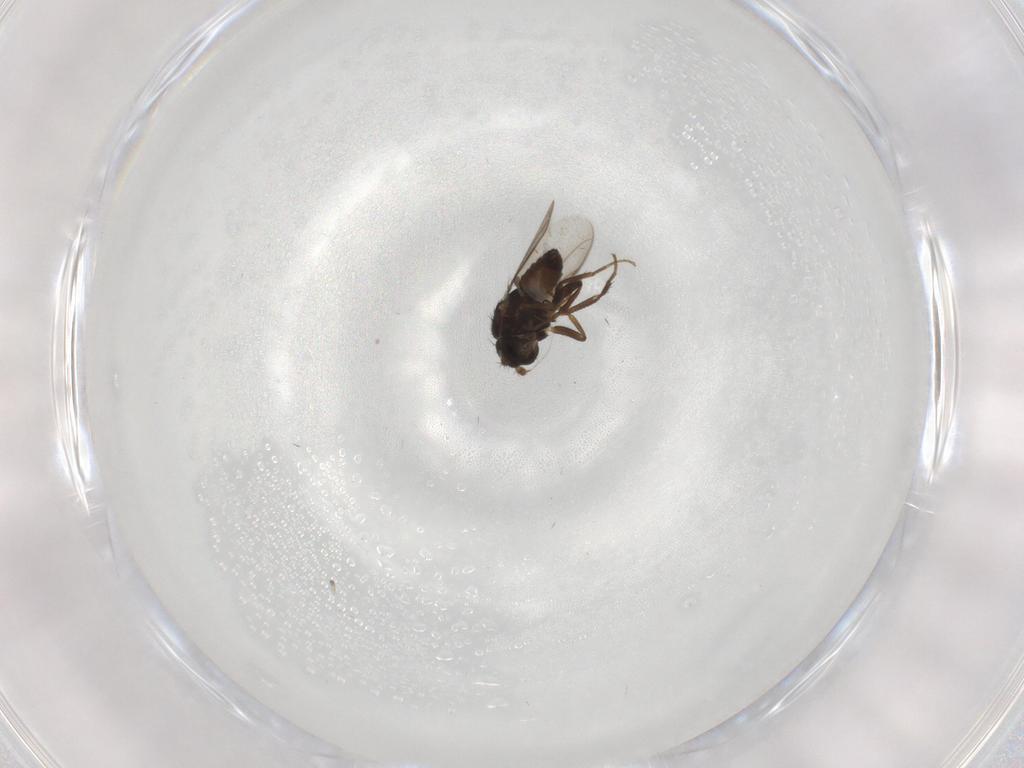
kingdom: Animalia
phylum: Arthropoda
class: Insecta
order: Diptera
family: Sphaeroceridae
